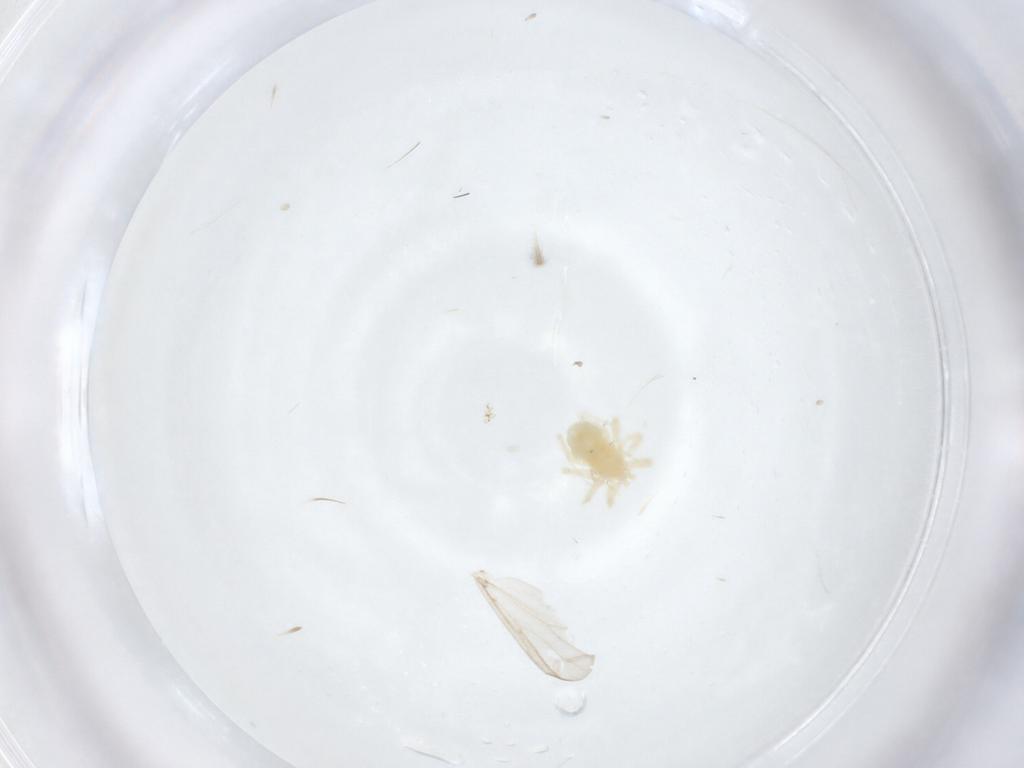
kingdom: Animalia
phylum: Arthropoda
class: Arachnida
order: Trombidiformes
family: Anystidae
